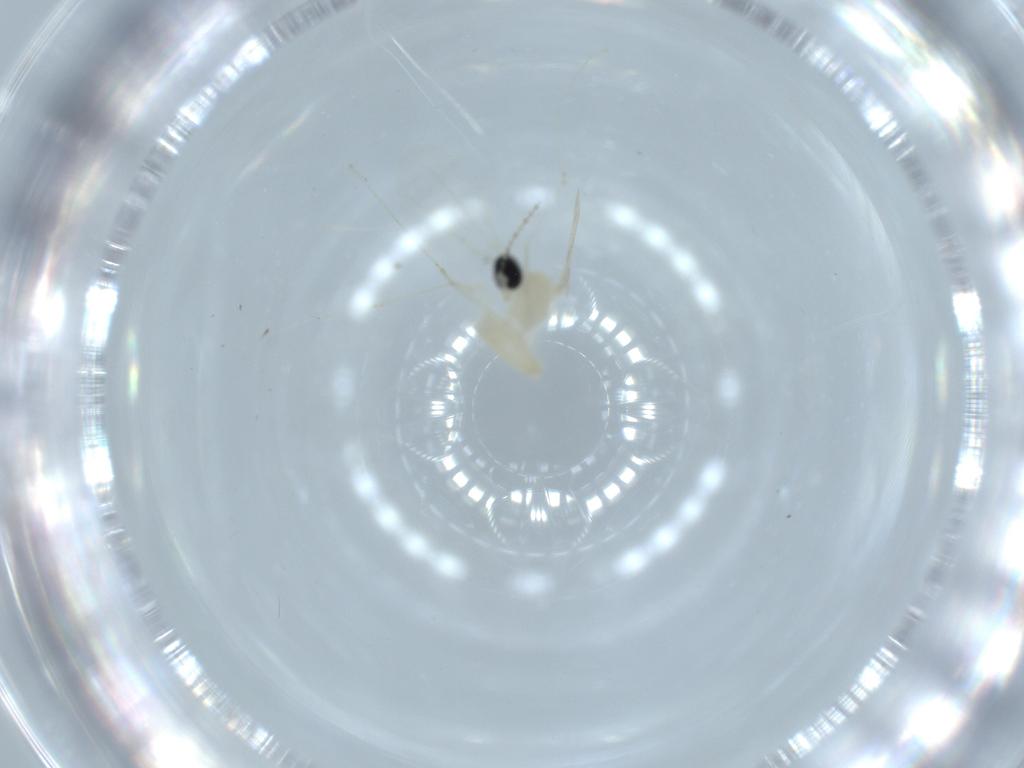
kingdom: Animalia
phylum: Arthropoda
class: Insecta
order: Diptera
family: Cecidomyiidae
